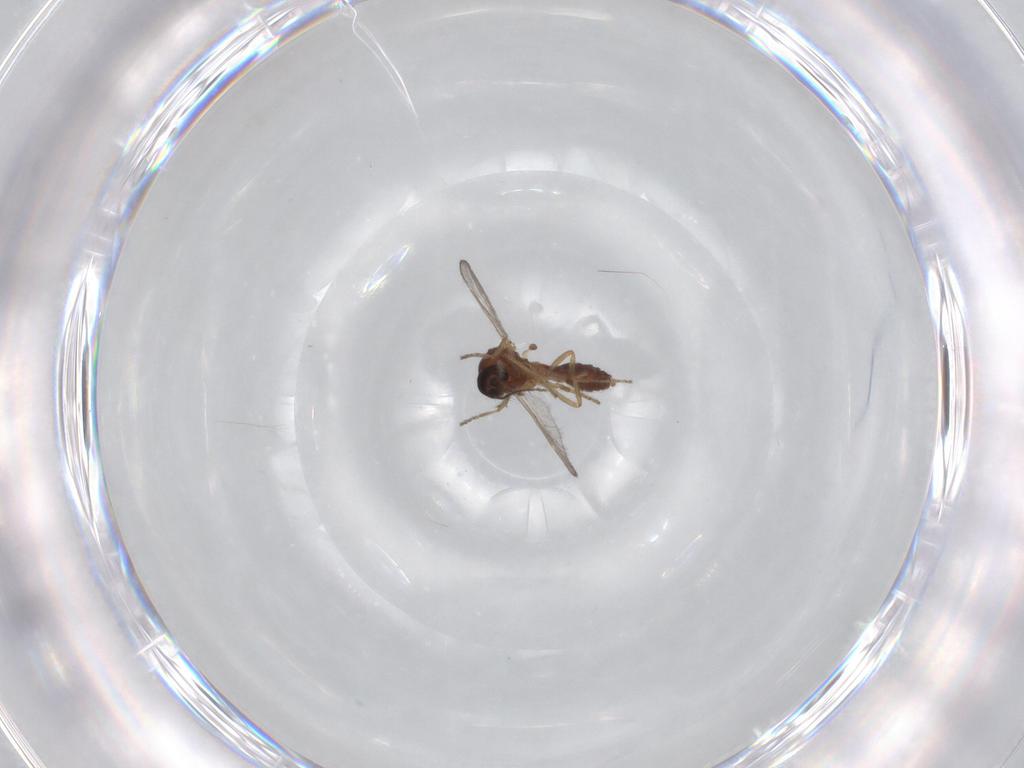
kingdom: Animalia
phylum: Arthropoda
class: Insecta
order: Diptera
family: Ceratopogonidae
